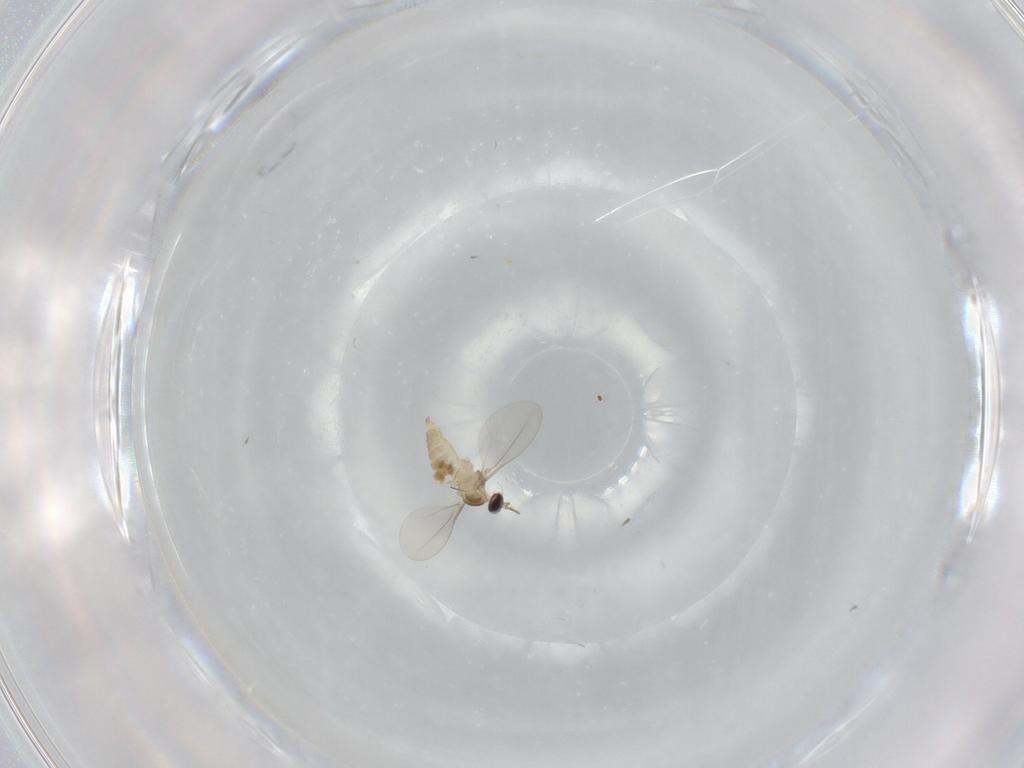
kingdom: Animalia
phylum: Arthropoda
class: Insecta
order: Diptera
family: Cecidomyiidae
